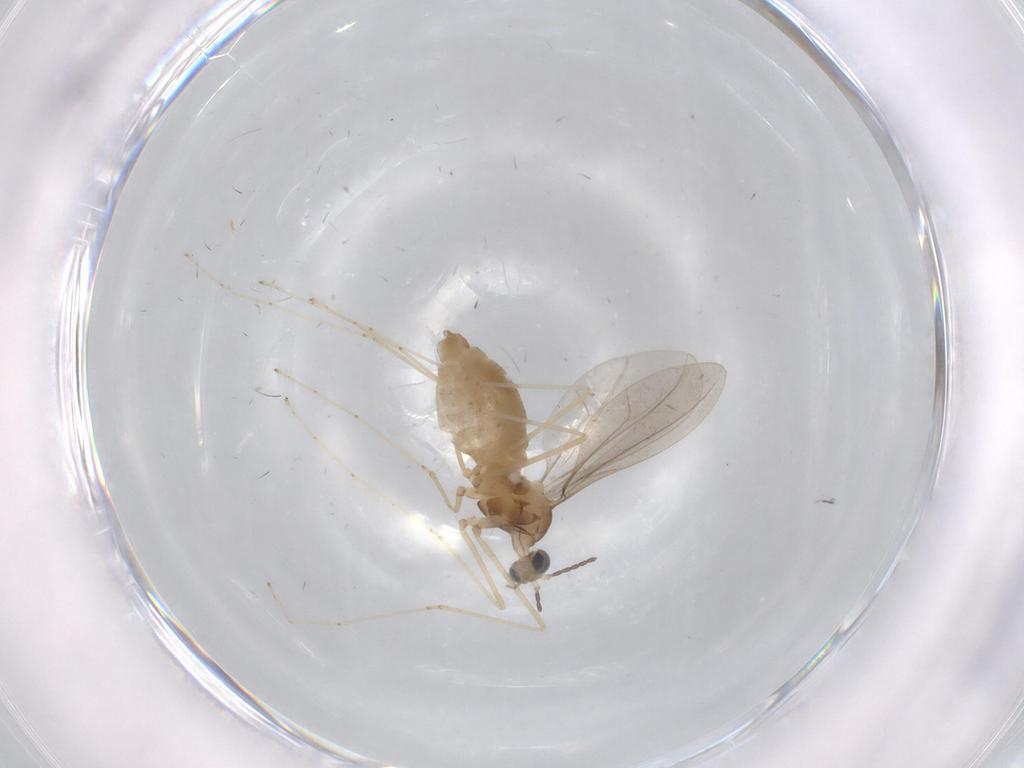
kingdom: Animalia
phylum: Arthropoda
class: Insecta
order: Diptera
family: Cecidomyiidae
